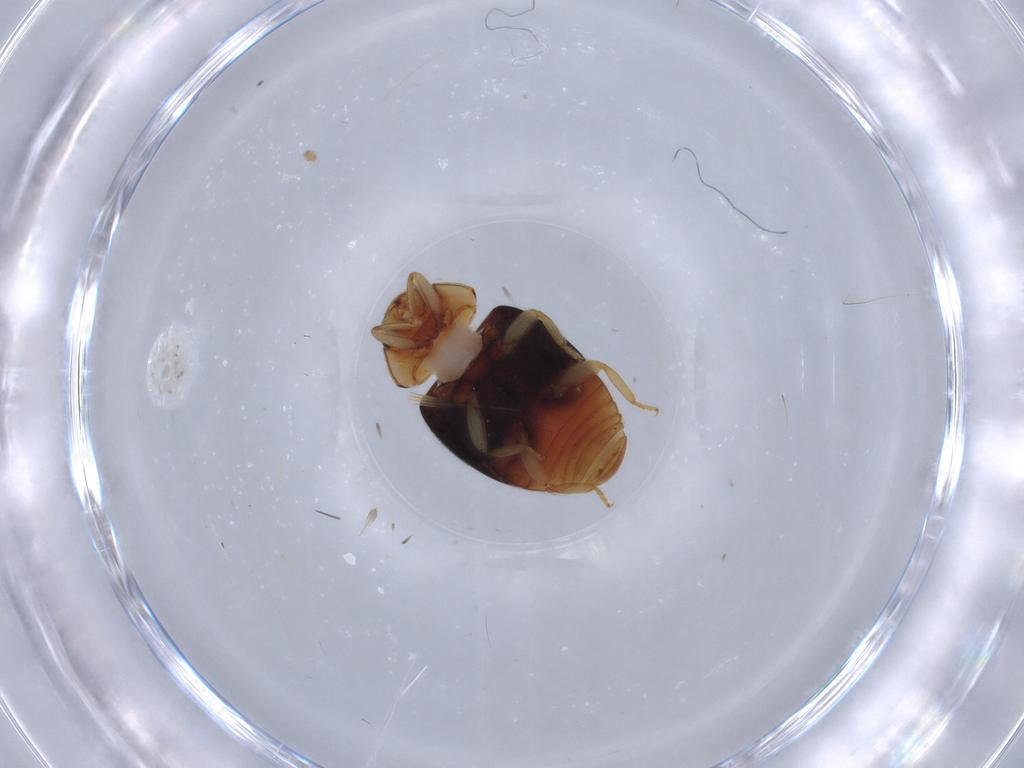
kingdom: Animalia
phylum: Arthropoda
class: Insecta
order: Coleoptera
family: Coccinellidae
